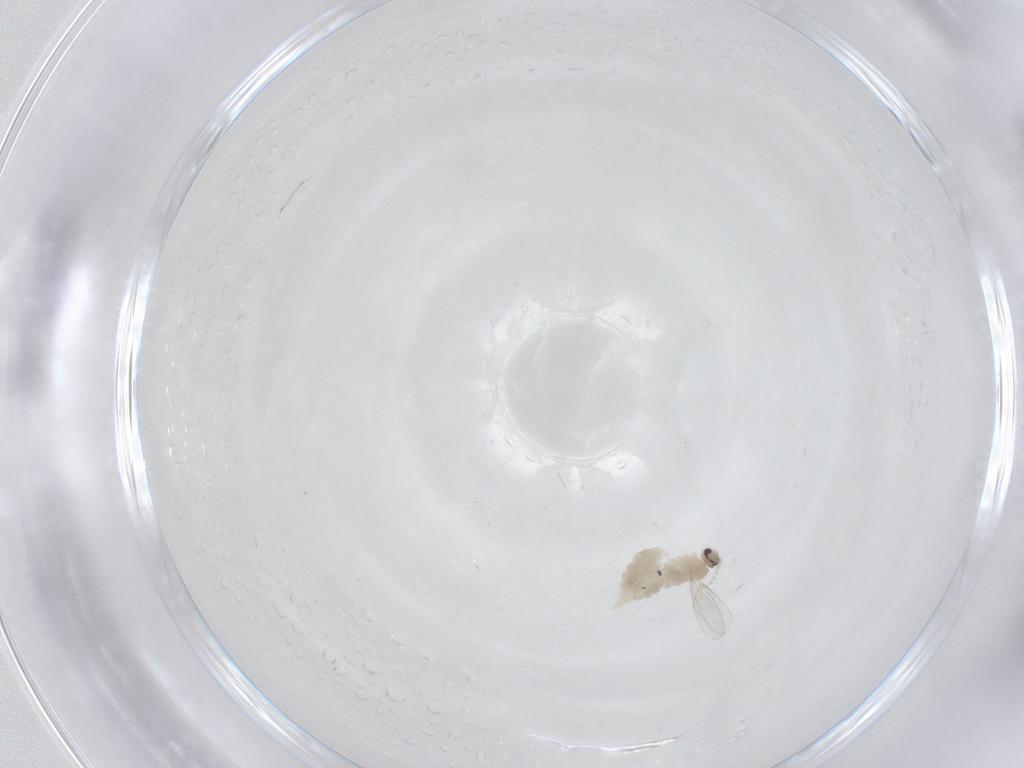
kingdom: Animalia
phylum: Arthropoda
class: Insecta
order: Diptera
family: Cecidomyiidae
